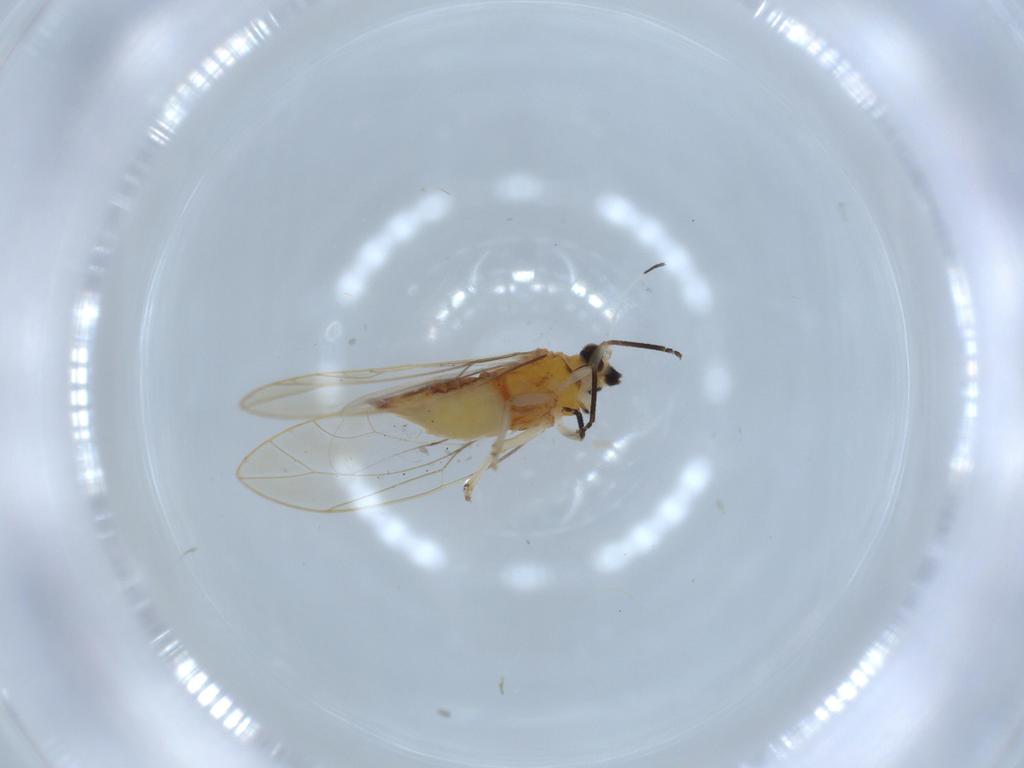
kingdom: Animalia
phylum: Arthropoda
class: Insecta
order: Hemiptera
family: Triozidae
